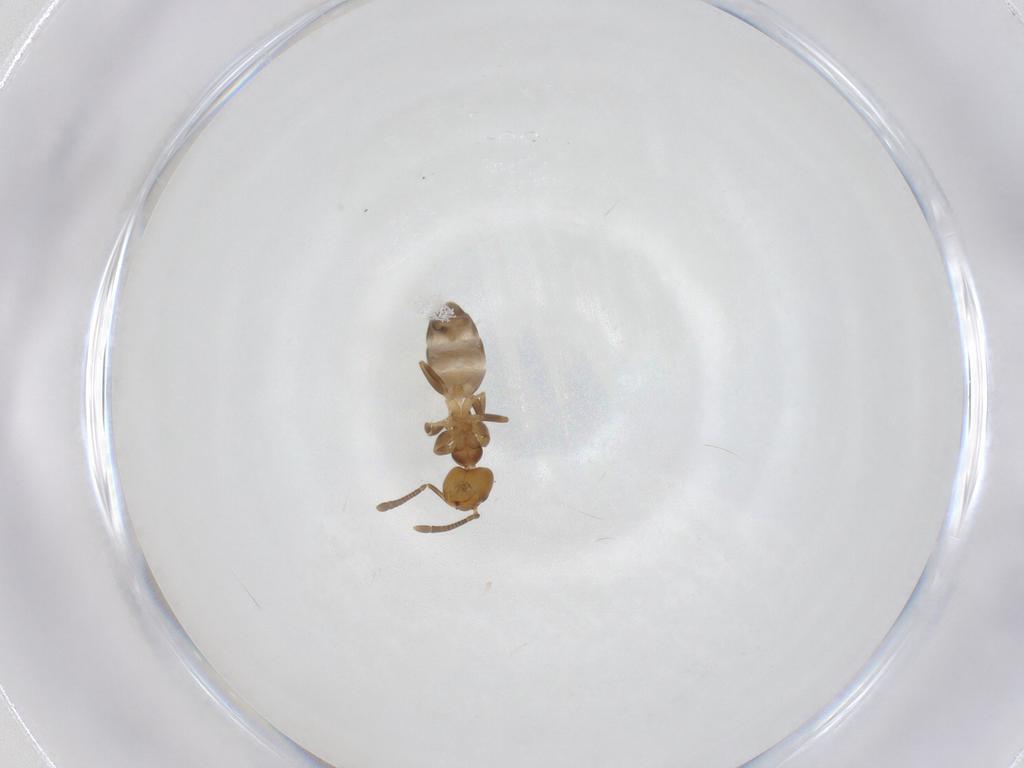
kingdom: Animalia
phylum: Arthropoda
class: Insecta
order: Hymenoptera
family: Formicidae
